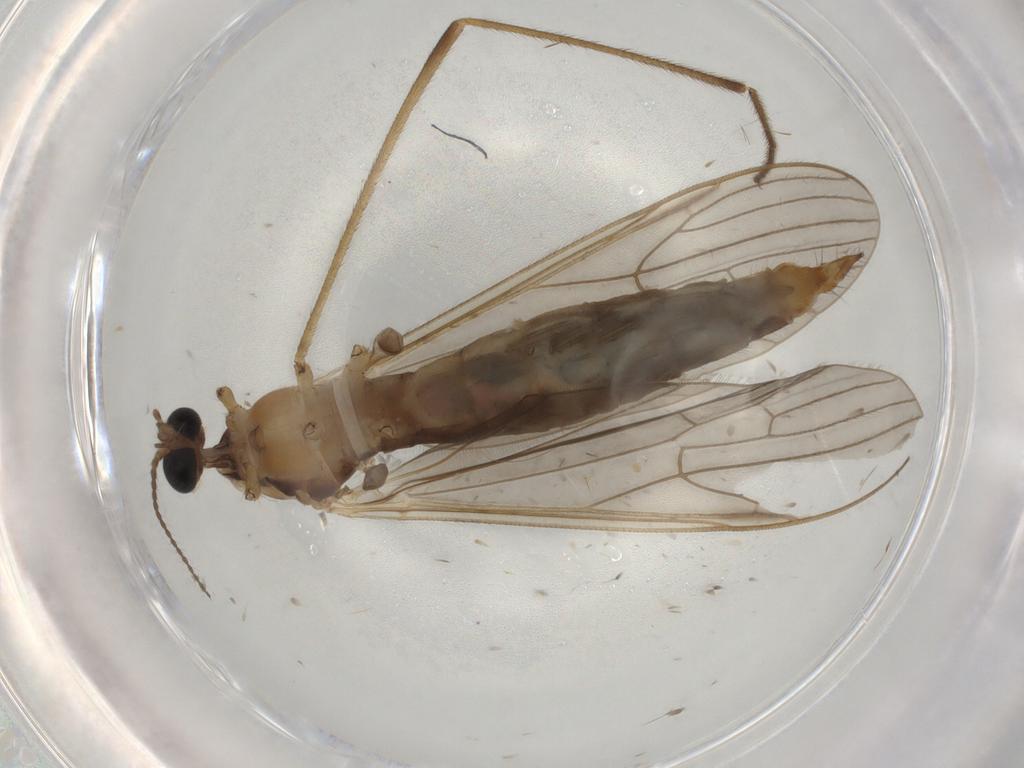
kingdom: Animalia
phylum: Arthropoda
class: Insecta
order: Diptera
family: Limoniidae
